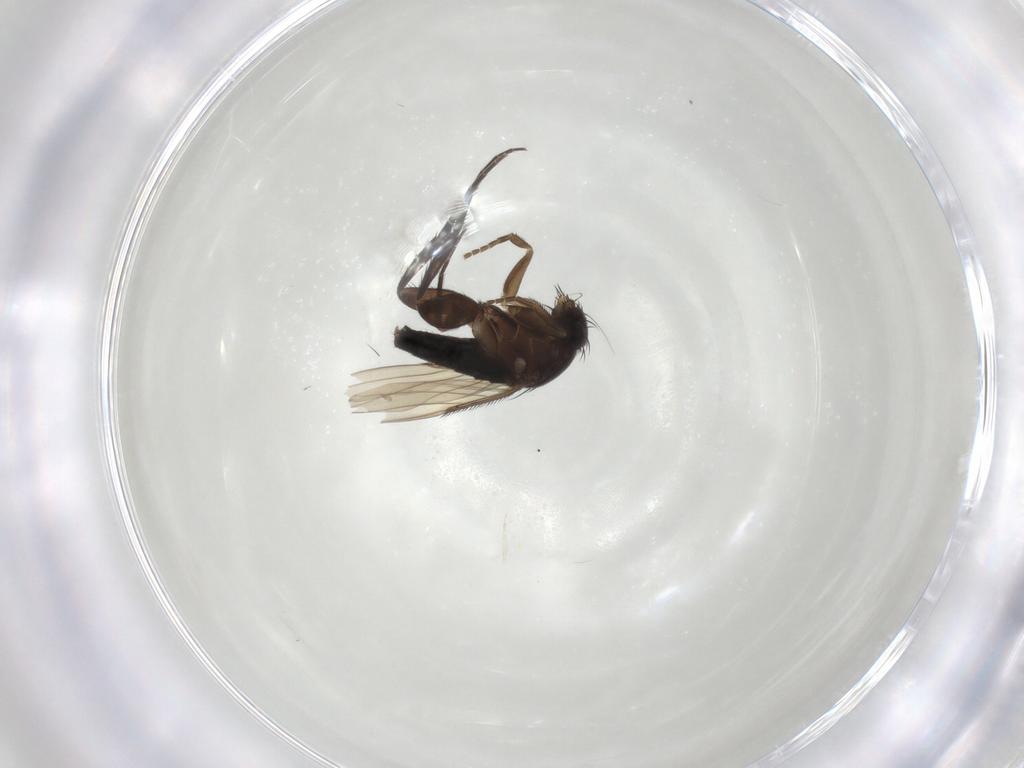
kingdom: Animalia
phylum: Arthropoda
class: Insecta
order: Diptera
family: Phoridae
